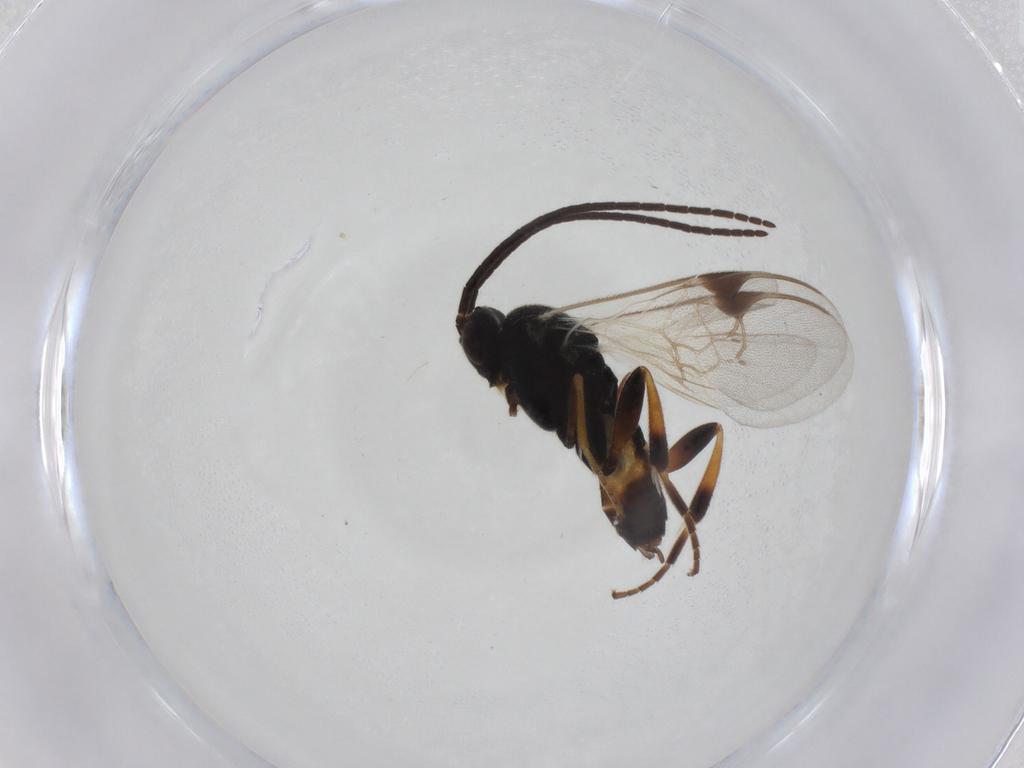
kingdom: Animalia
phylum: Arthropoda
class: Insecta
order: Hymenoptera
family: Braconidae
